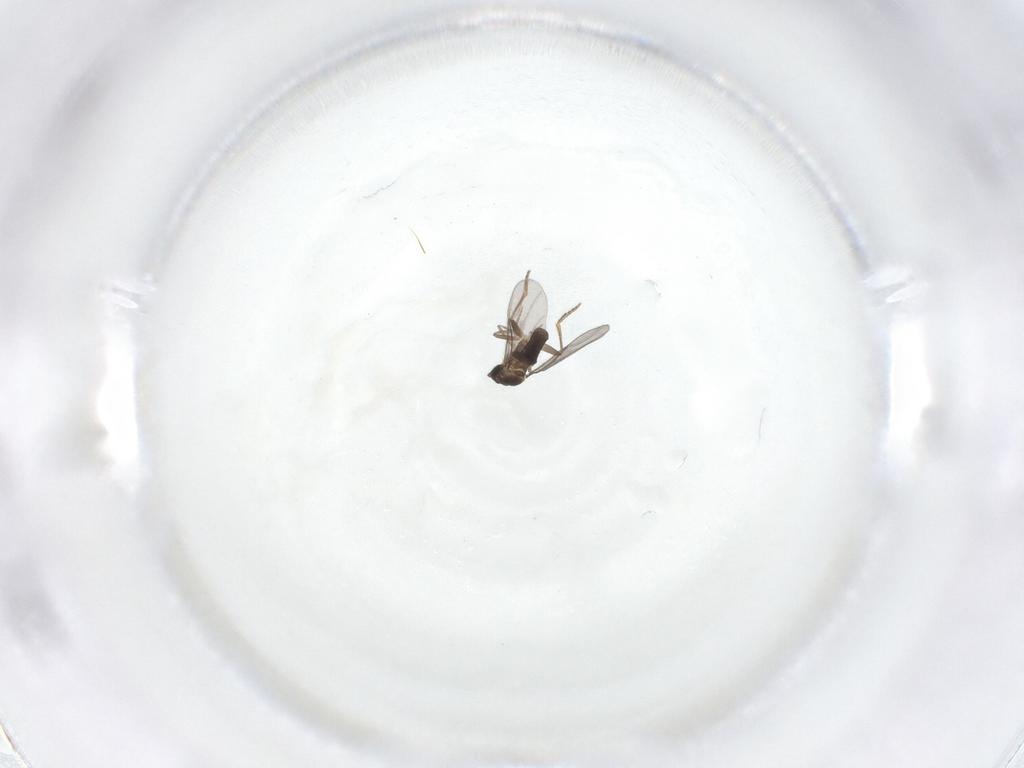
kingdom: Animalia
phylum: Arthropoda
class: Insecta
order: Diptera
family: Phoridae
